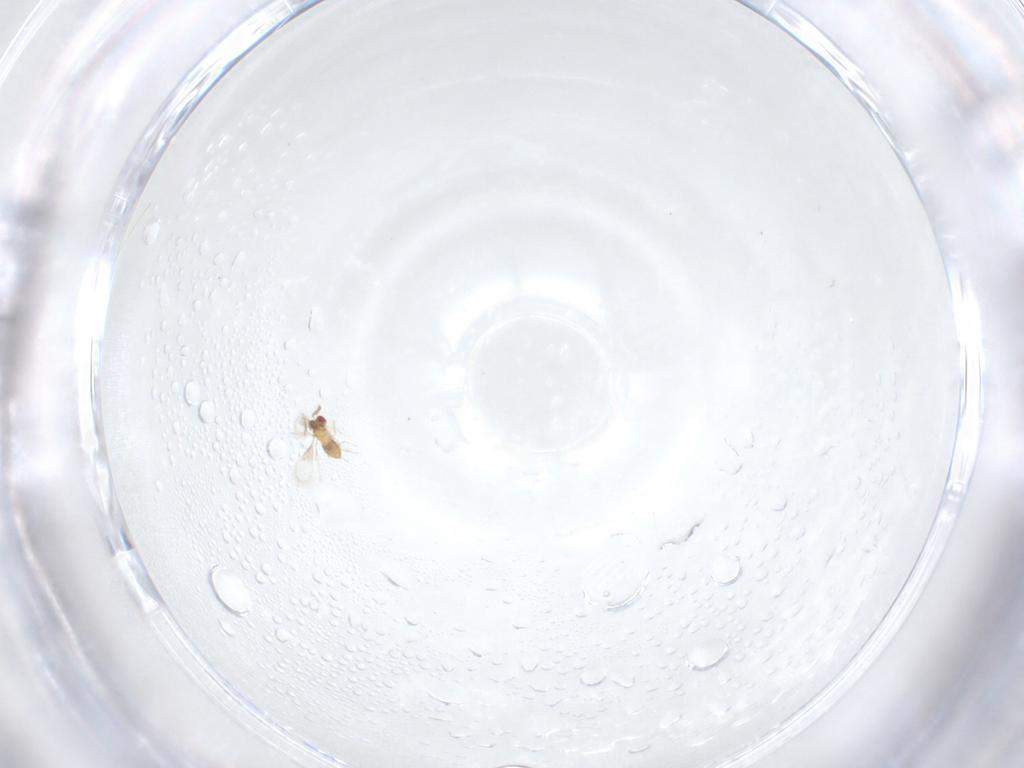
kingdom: Animalia
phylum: Arthropoda
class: Insecta
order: Hymenoptera
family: Trichogrammatidae
